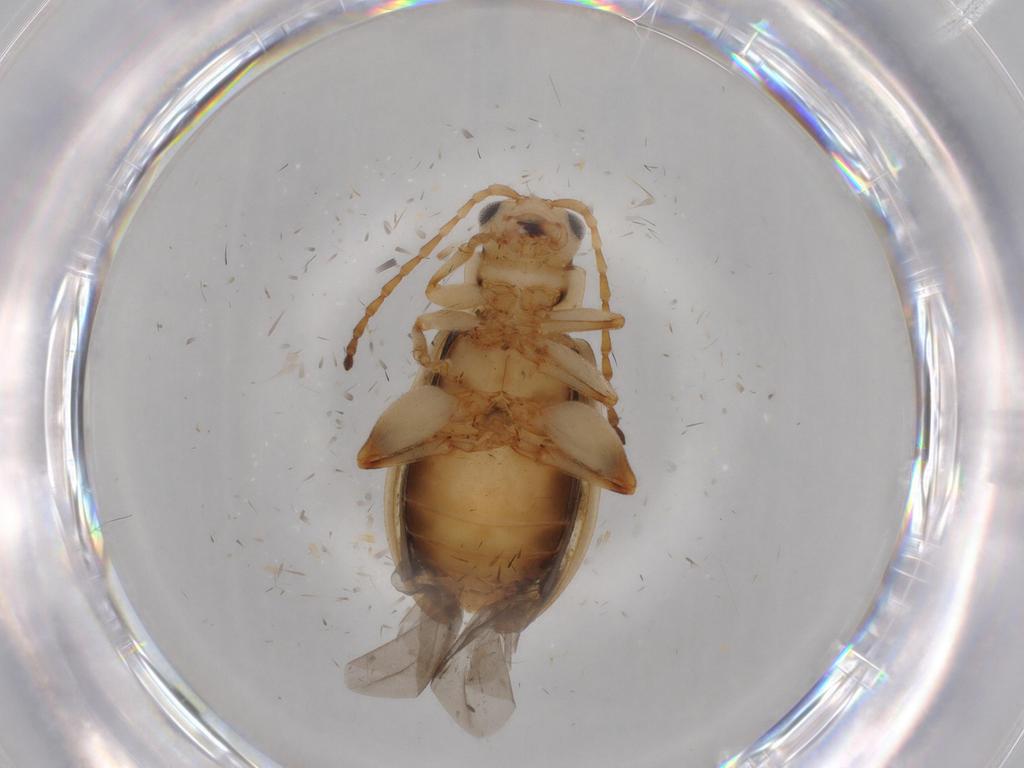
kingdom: Animalia
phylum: Arthropoda
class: Insecta
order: Coleoptera
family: Chrysomelidae
